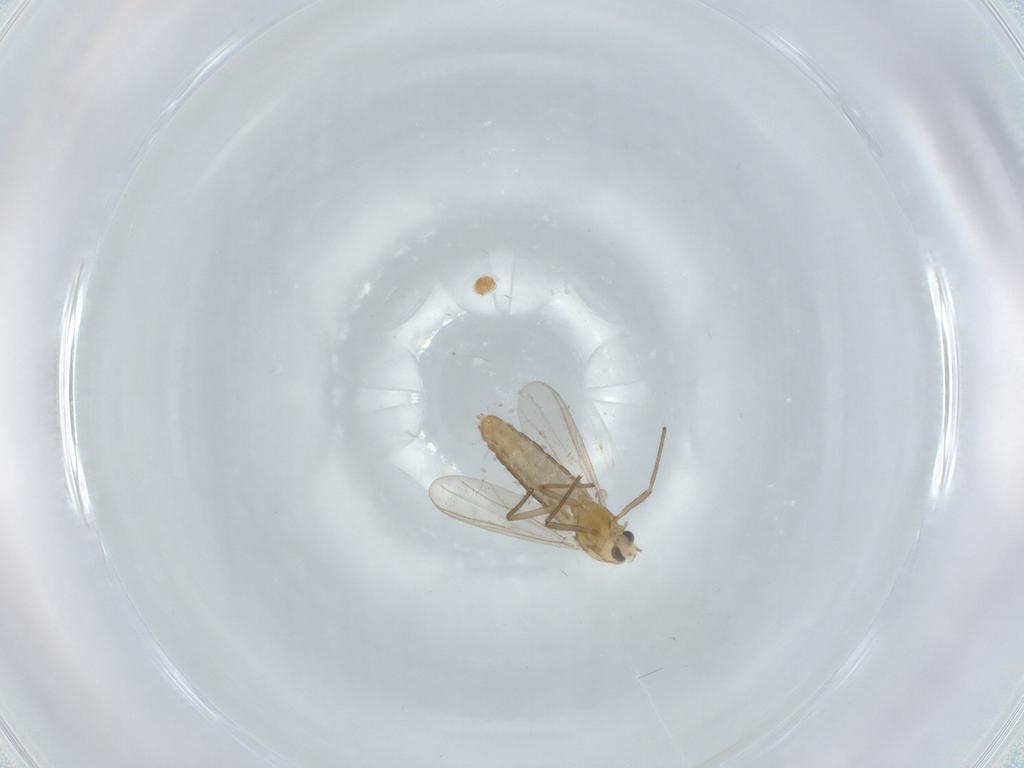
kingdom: Animalia
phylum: Arthropoda
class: Insecta
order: Diptera
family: Chironomidae
